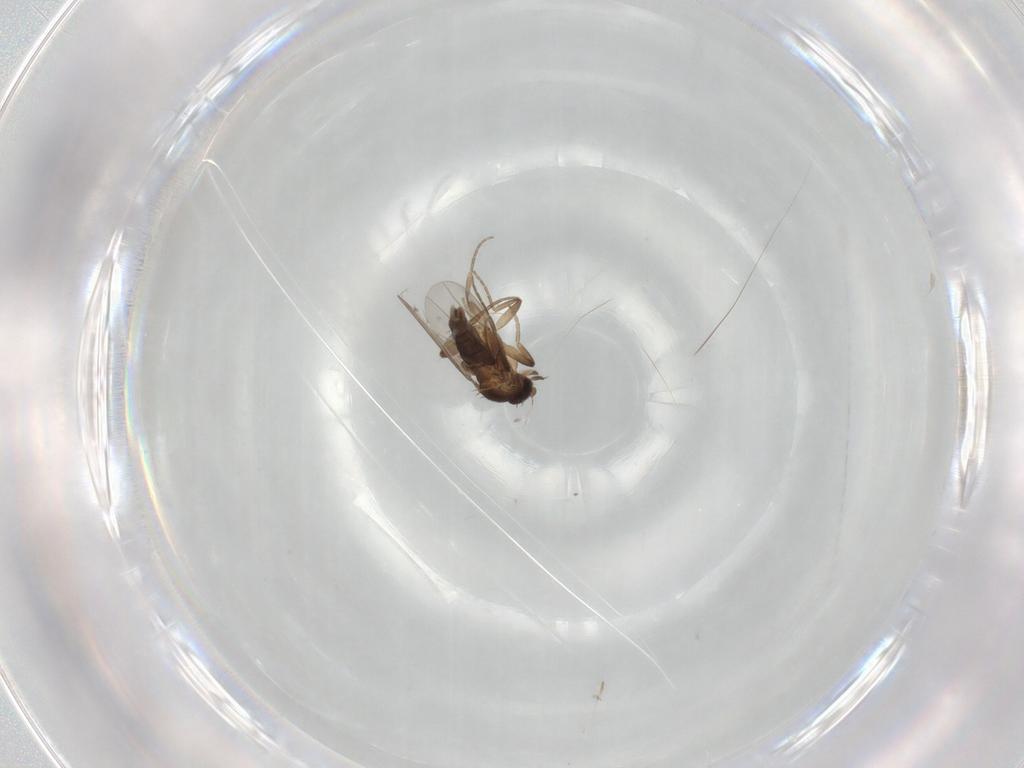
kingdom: Animalia
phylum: Arthropoda
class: Insecta
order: Diptera
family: Phoridae
